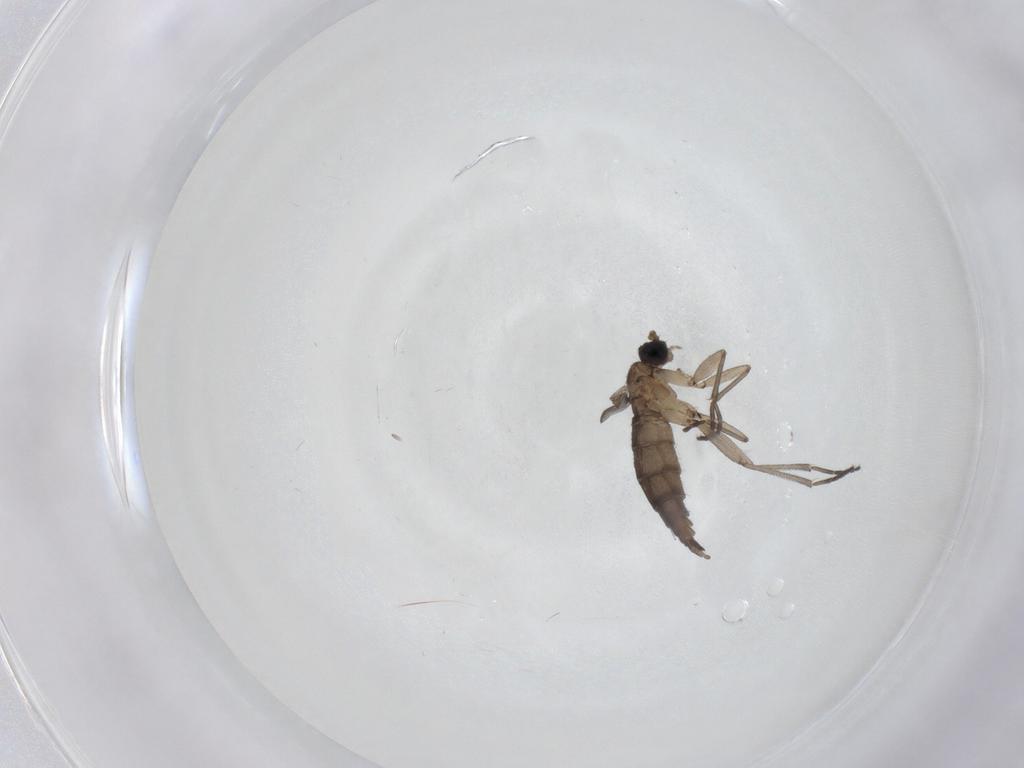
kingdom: Animalia
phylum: Arthropoda
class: Insecta
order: Diptera
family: Sciaridae
